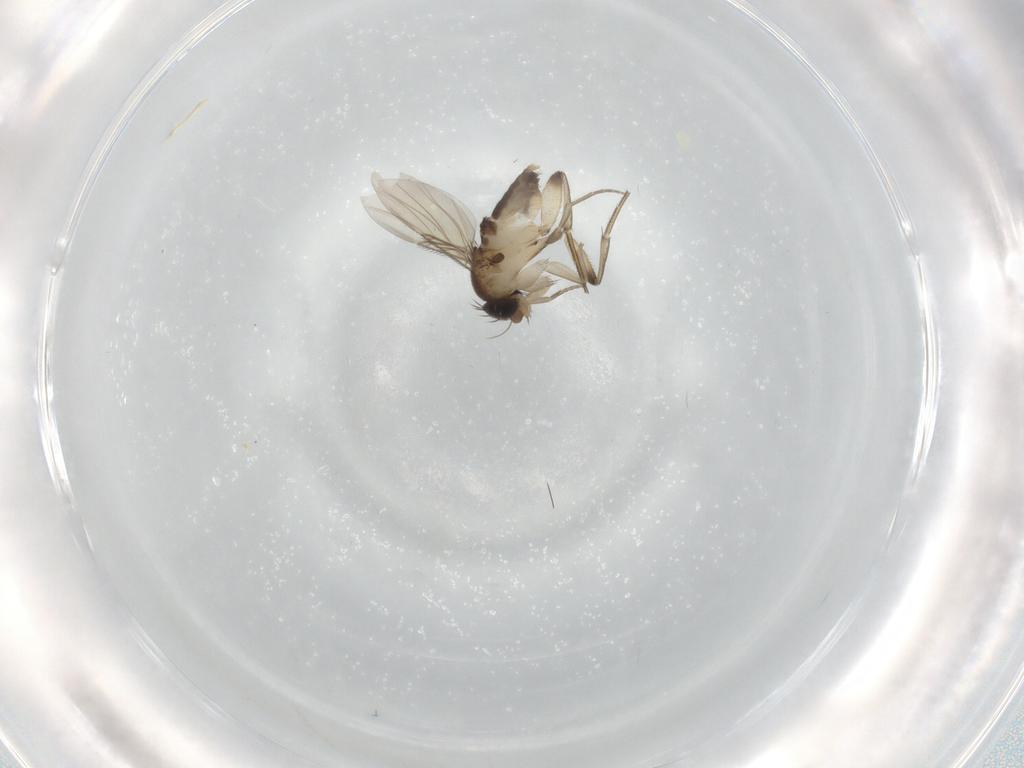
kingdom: Animalia
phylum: Arthropoda
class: Insecta
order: Diptera
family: Phoridae
